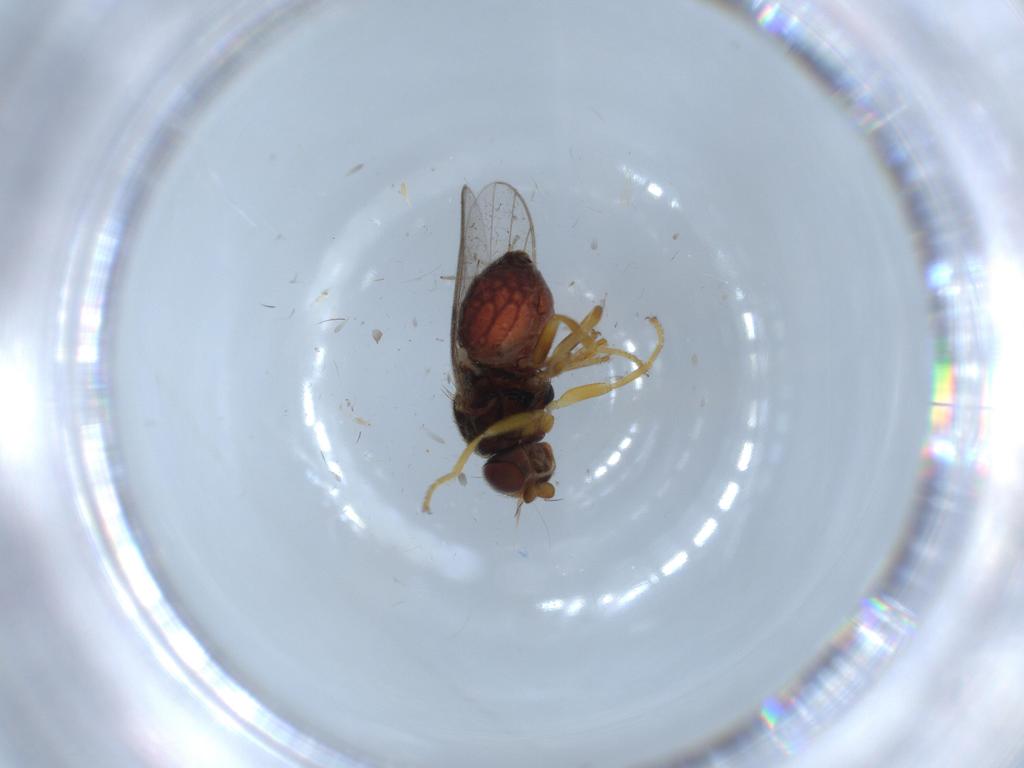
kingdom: Animalia
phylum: Arthropoda
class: Insecta
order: Diptera
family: Chloropidae
